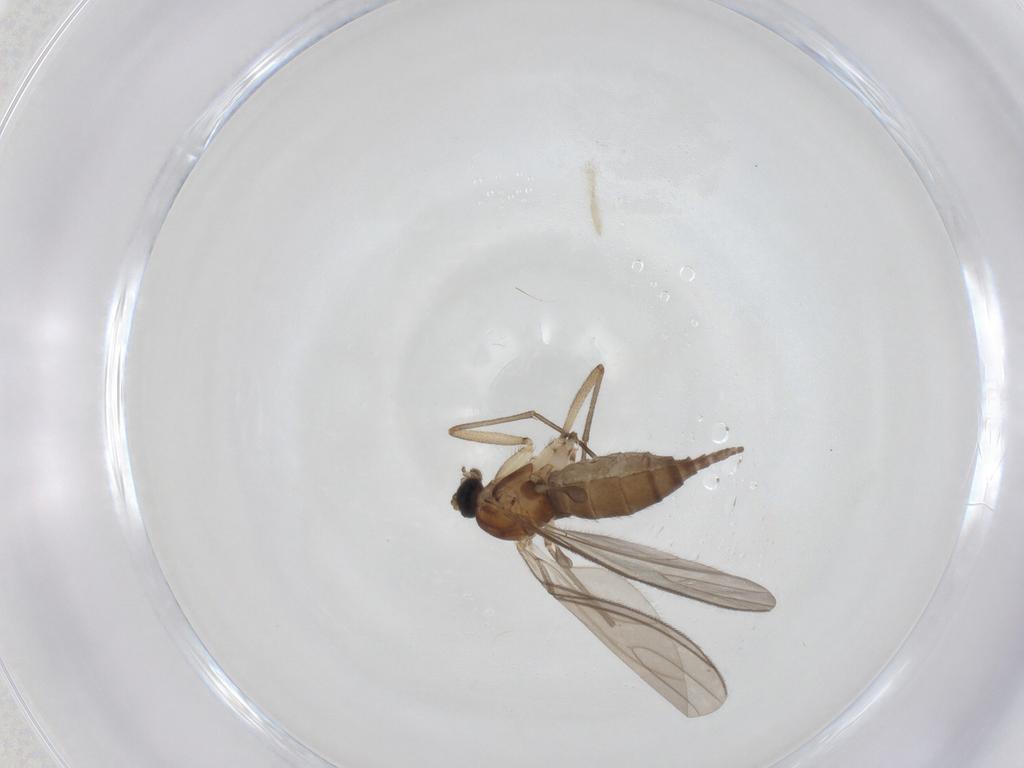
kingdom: Animalia
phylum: Arthropoda
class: Insecta
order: Diptera
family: Sciaridae
